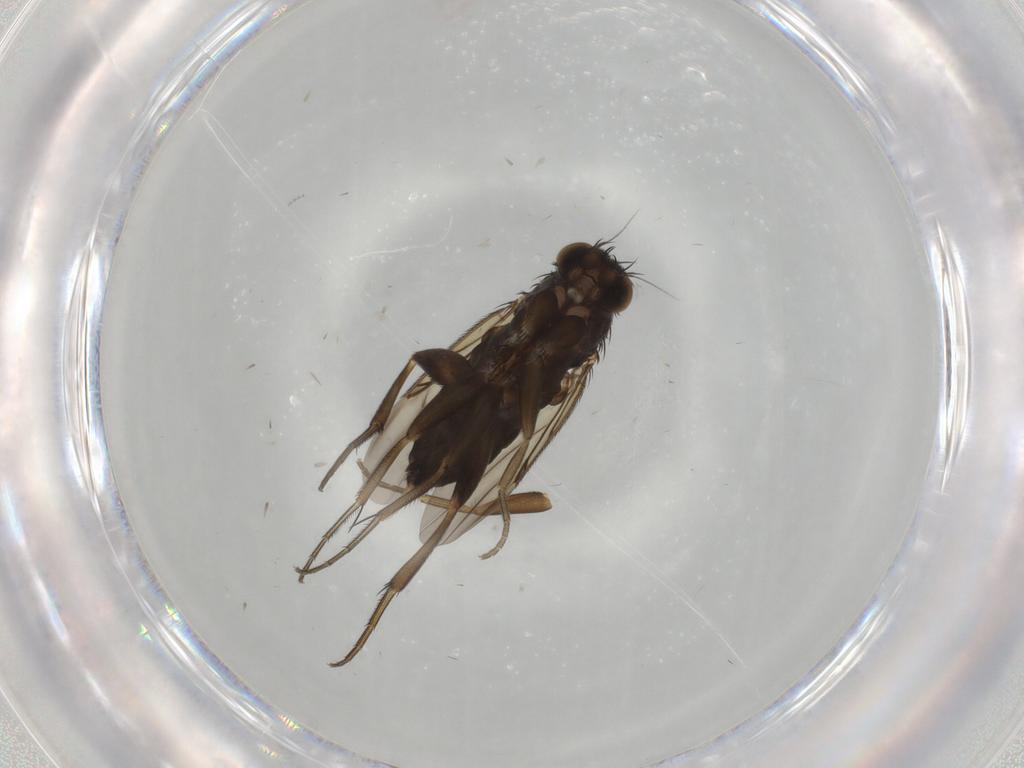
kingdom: Animalia
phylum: Arthropoda
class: Insecta
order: Diptera
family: Phoridae
